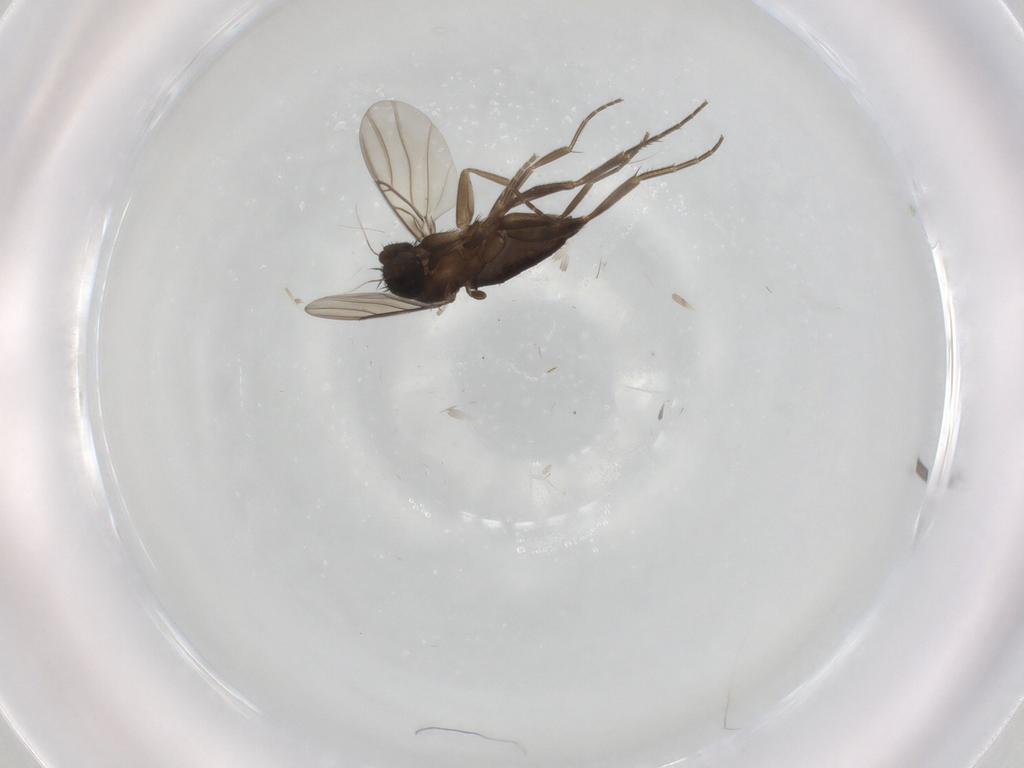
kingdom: Animalia
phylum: Arthropoda
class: Insecta
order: Diptera
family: Phoridae
